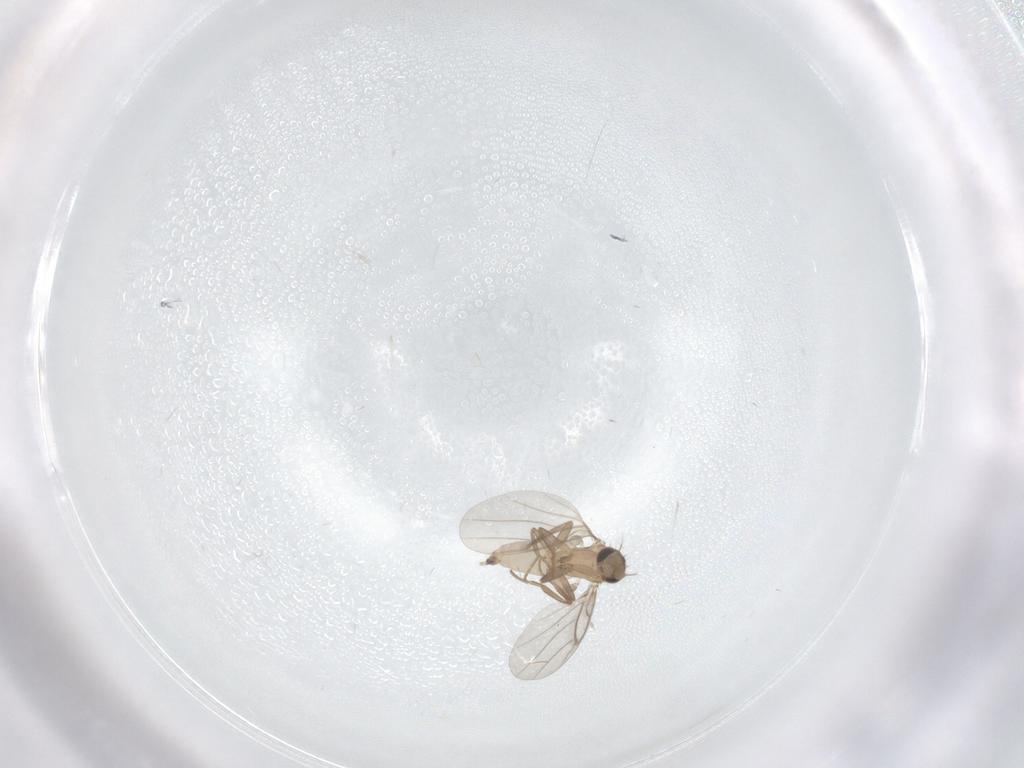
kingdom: Animalia
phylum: Arthropoda
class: Insecta
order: Diptera
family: Chironomidae
